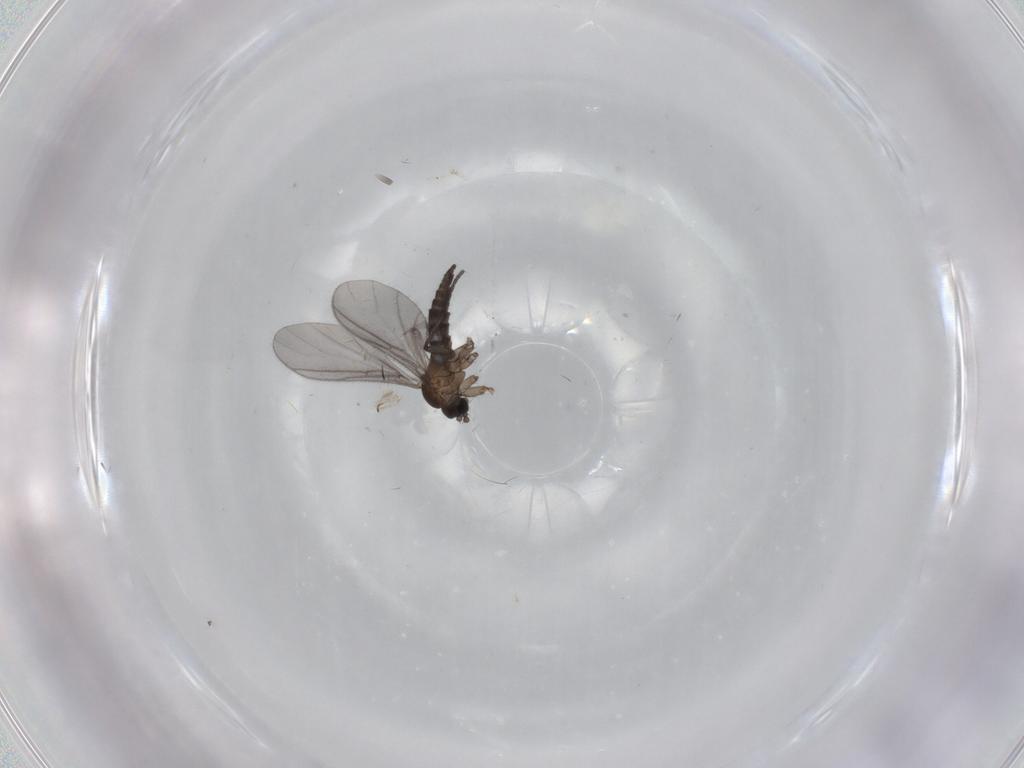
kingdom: Animalia
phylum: Arthropoda
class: Insecta
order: Diptera
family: Sciaridae
